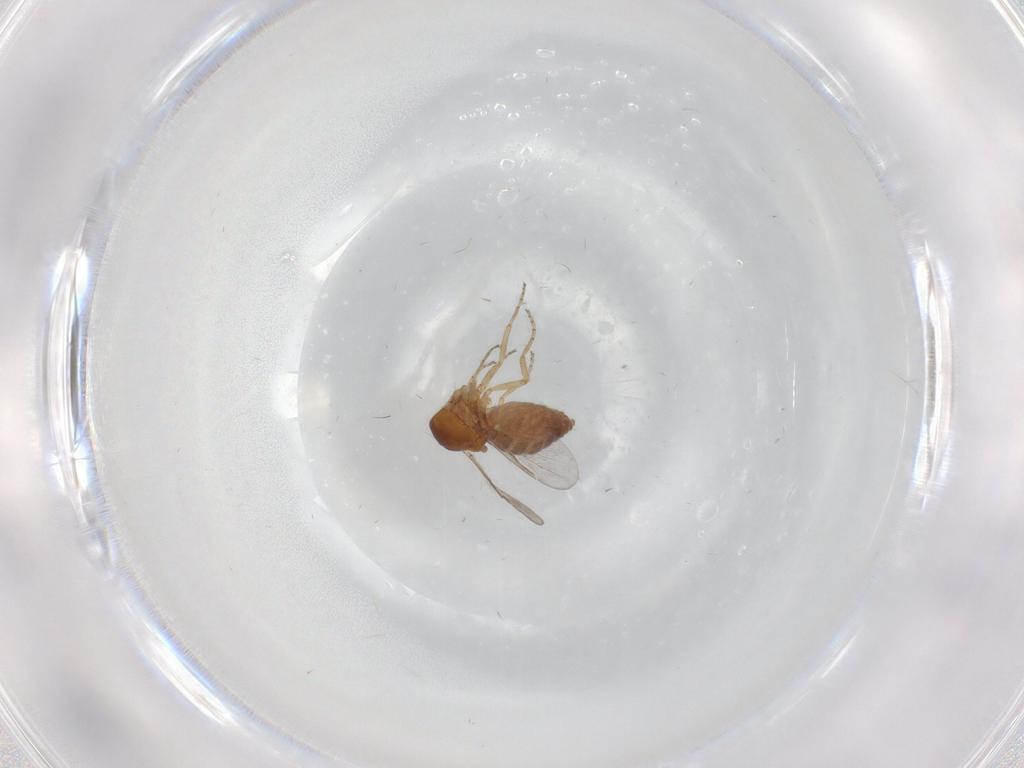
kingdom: Animalia
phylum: Arthropoda
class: Insecta
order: Diptera
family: Ceratopogonidae
